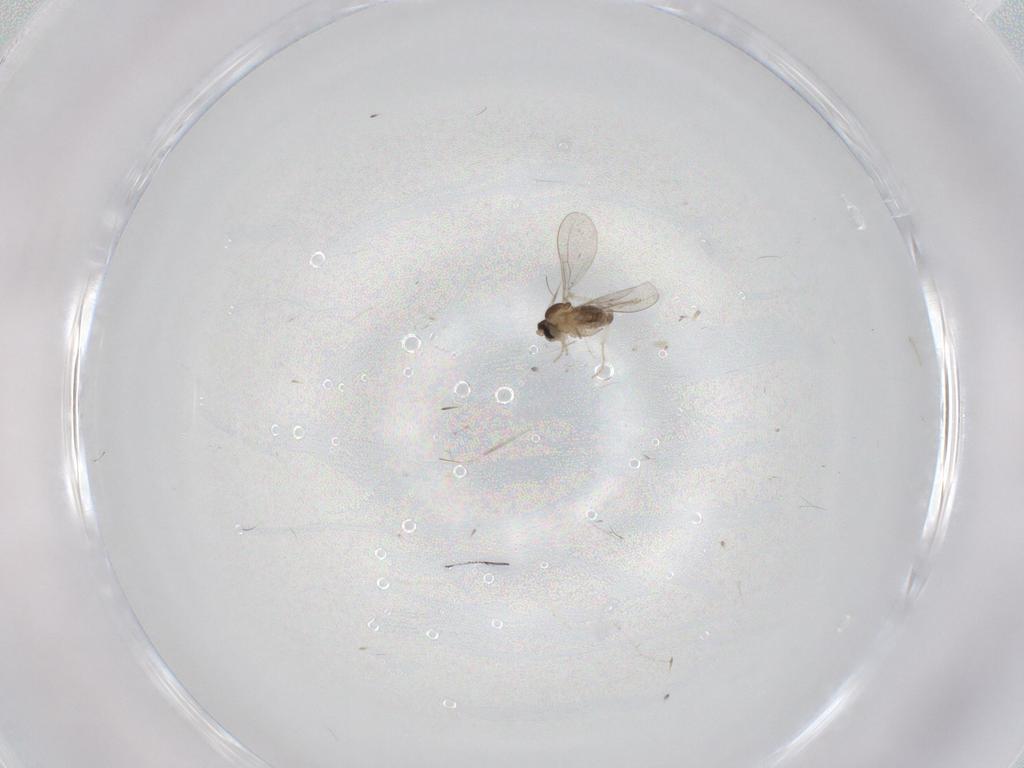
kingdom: Animalia
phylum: Arthropoda
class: Insecta
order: Diptera
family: Cecidomyiidae
